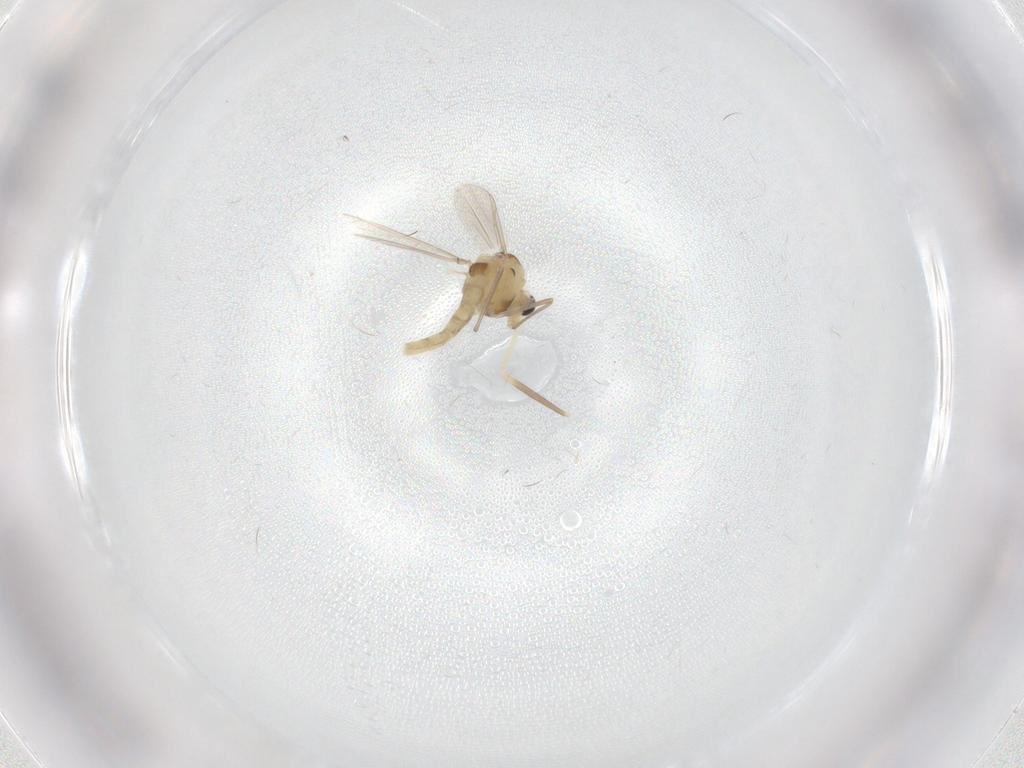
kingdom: Animalia
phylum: Arthropoda
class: Insecta
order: Diptera
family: Chironomidae
